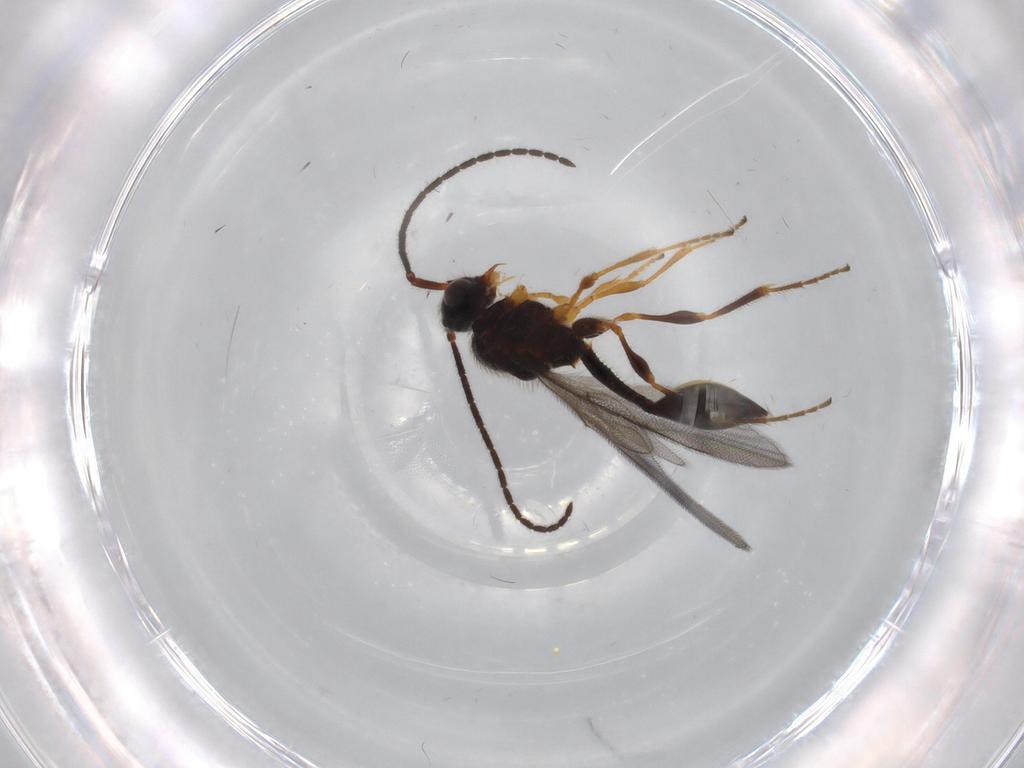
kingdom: Animalia
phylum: Arthropoda
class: Insecta
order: Hymenoptera
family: Diapriidae
